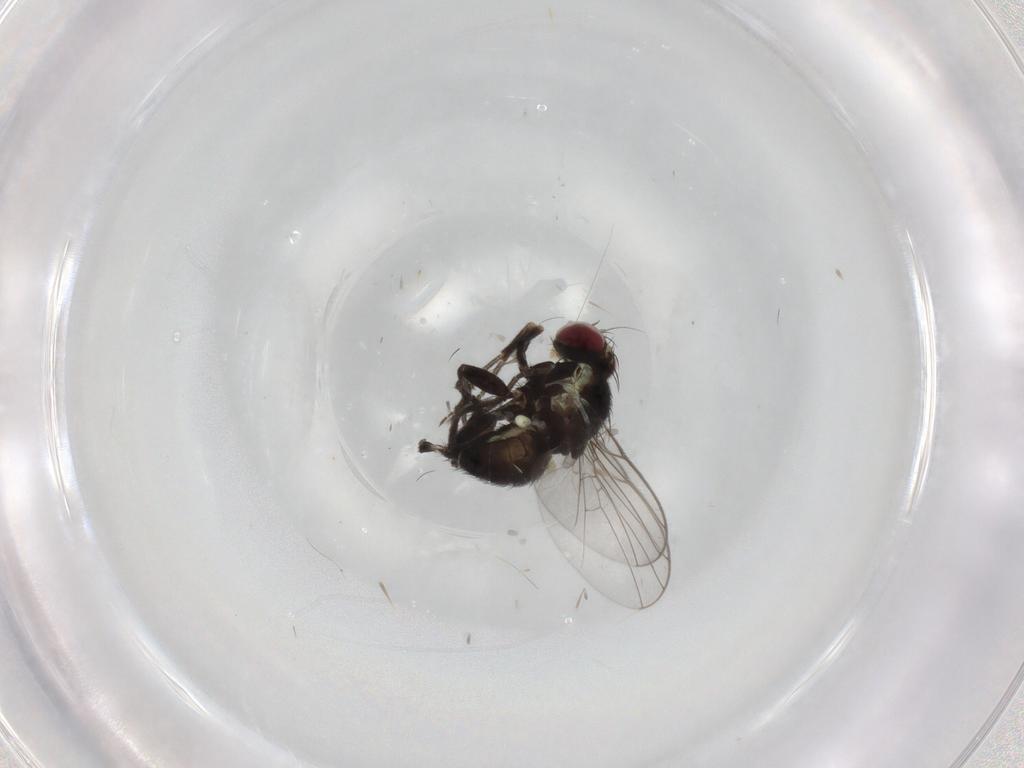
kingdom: Animalia
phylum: Arthropoda
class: Insecta
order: Diptera
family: Agromyzidae
